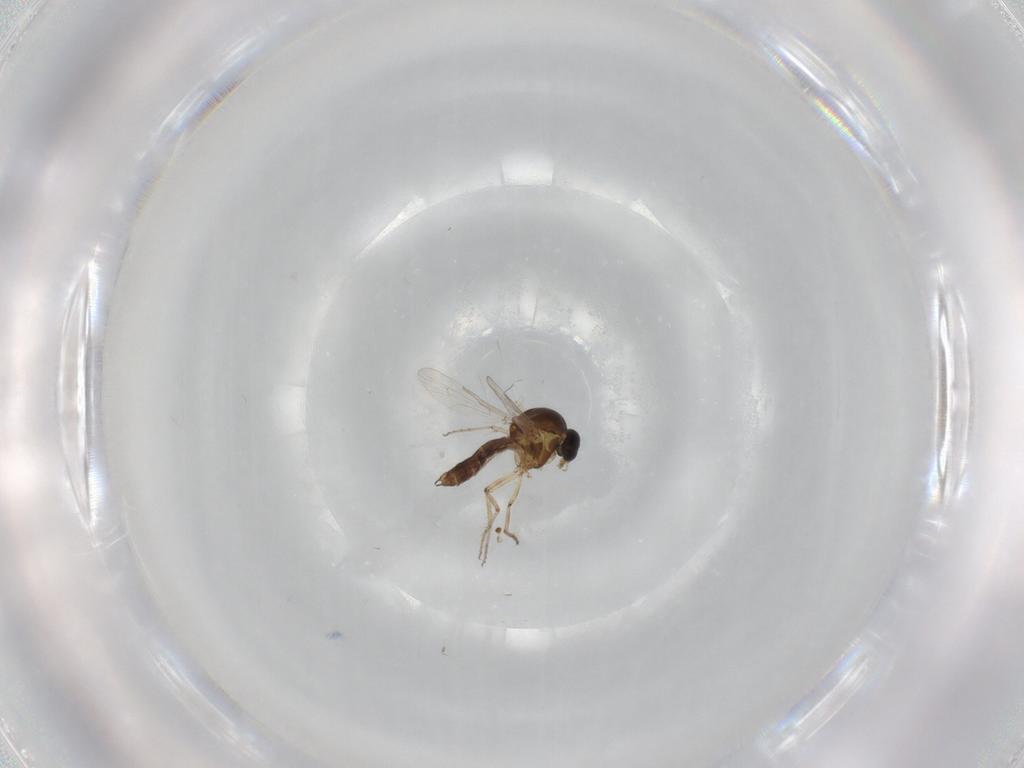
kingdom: Animalia
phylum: Arthropoda
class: Insecta
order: Diptera
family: Ceratopogonidae
